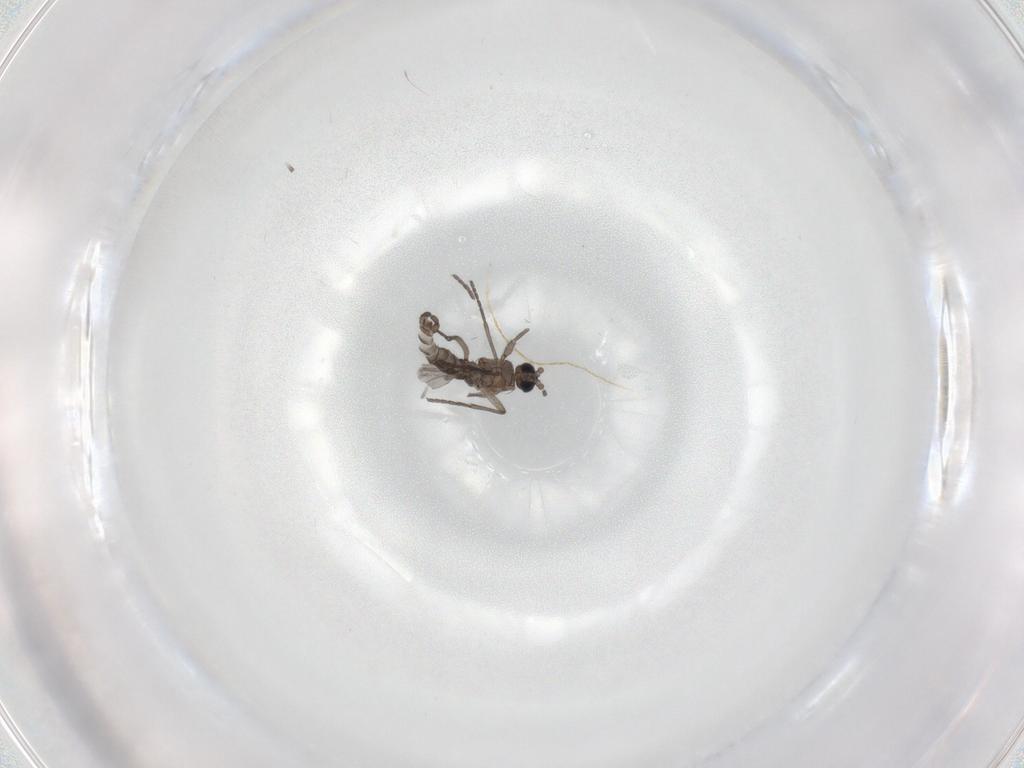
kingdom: Animalia
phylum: Arthropoda
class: Insecta
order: Diptera
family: Sciaridae
